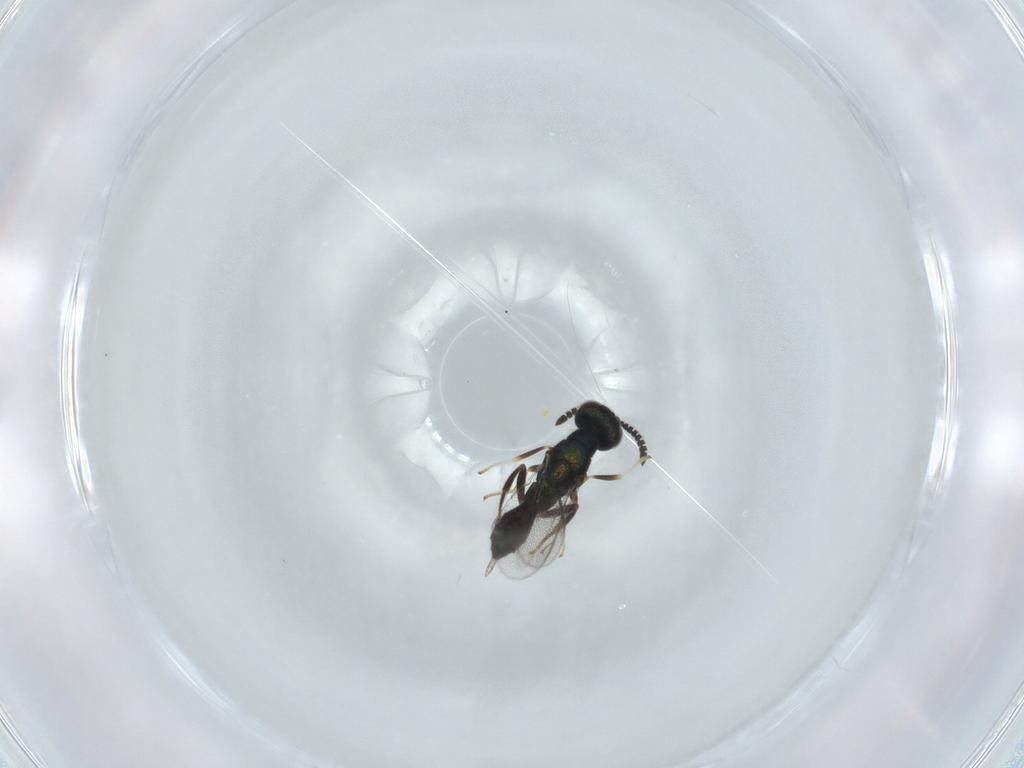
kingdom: Animalia
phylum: Arthropoda
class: Insecta
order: Hymenoptera
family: Cleonyminae
